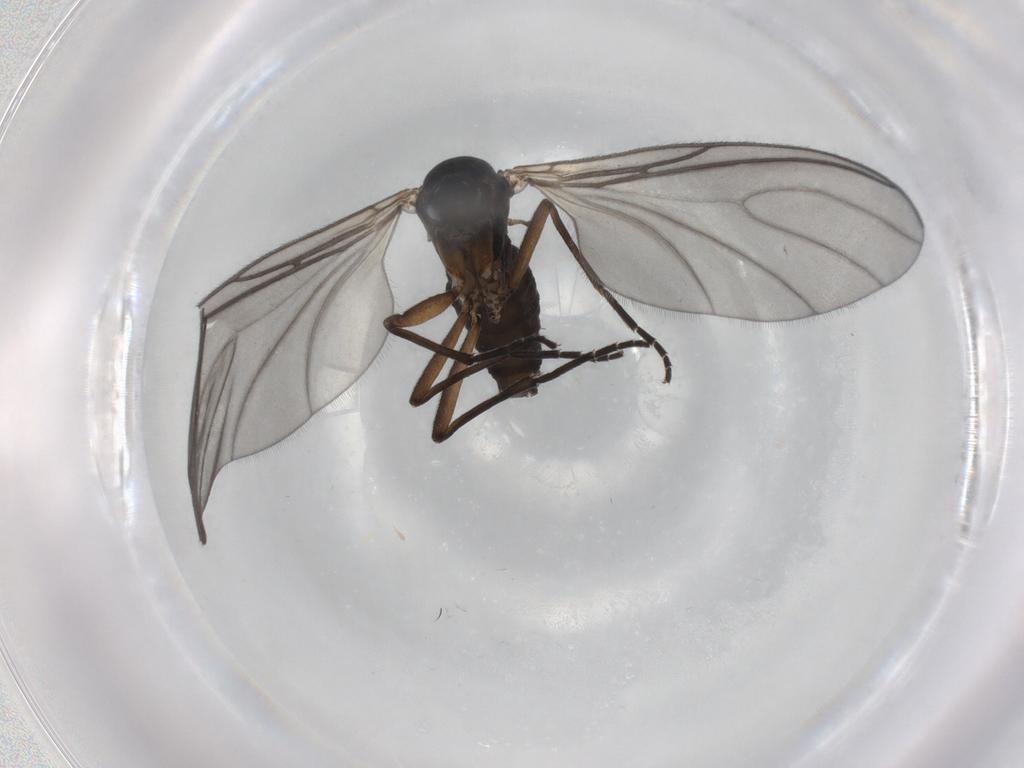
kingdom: Animalia
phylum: Arthropoda
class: Insecta
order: Diptera
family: Sciaridae
